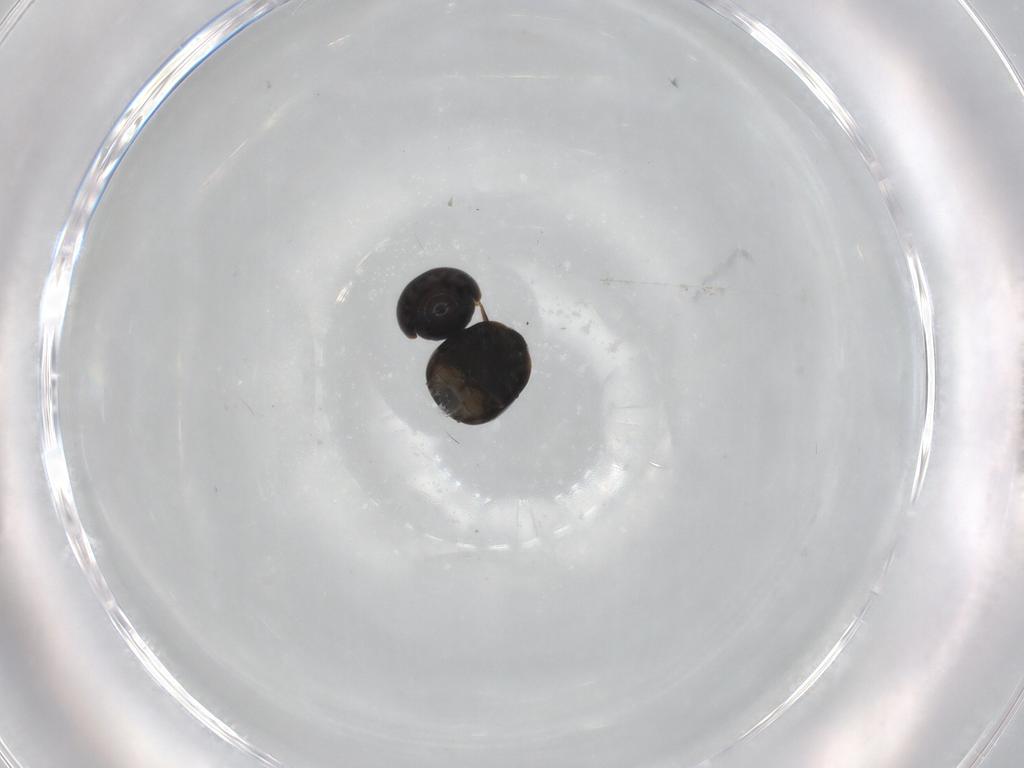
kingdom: Animalia
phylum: Arthropoda
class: Insecta
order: Coleoptera
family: Cybocephalidae
